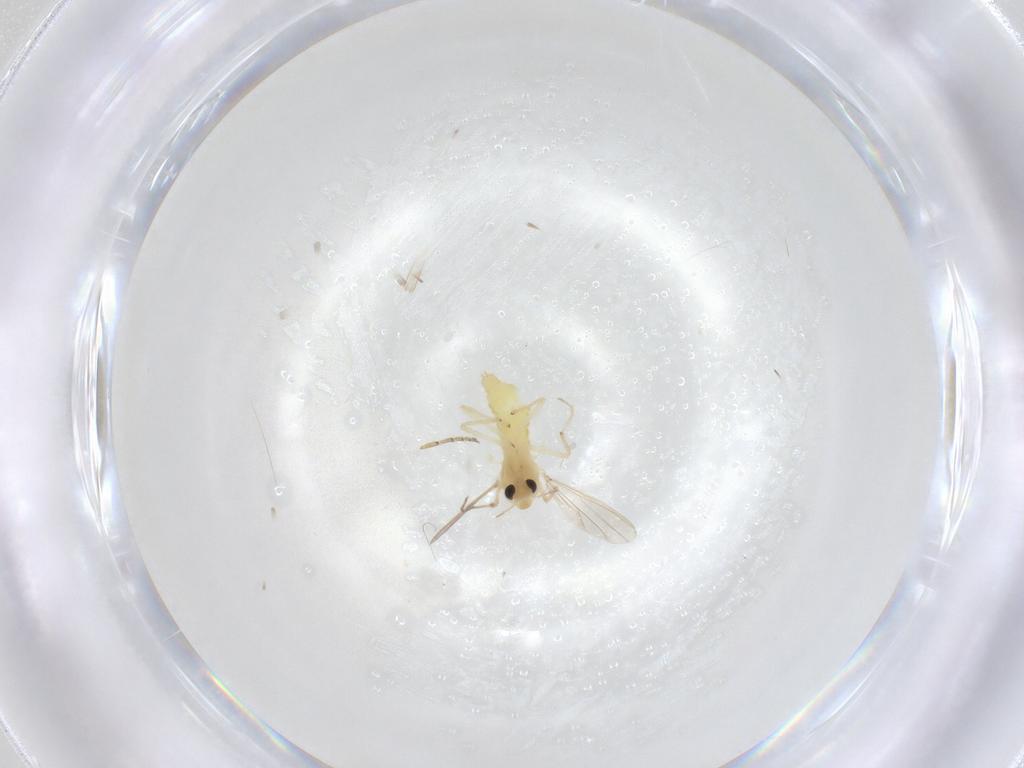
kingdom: Animalia
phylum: Arthropoda
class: Insecta
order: Diptera
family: Chironomidae
